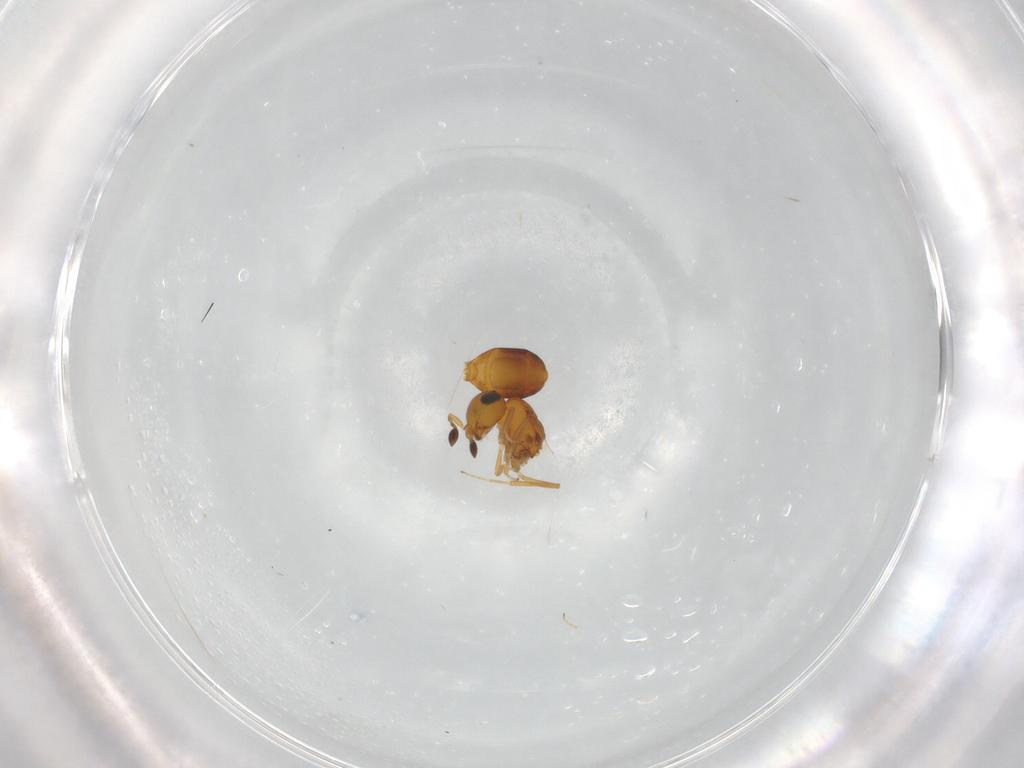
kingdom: Animalia
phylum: Arthropoda
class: Insecta
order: Hymenoptera
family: Scelionidae
